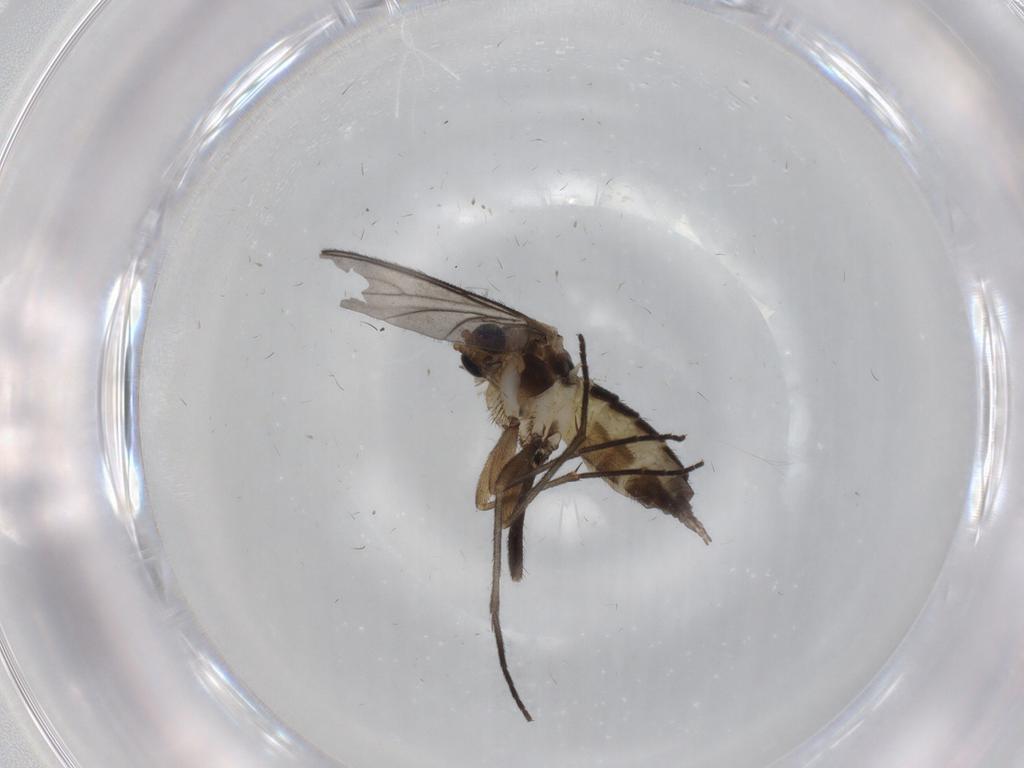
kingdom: Animalia
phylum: Arthropoda
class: Insecta
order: Diptera
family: Sciaridae
